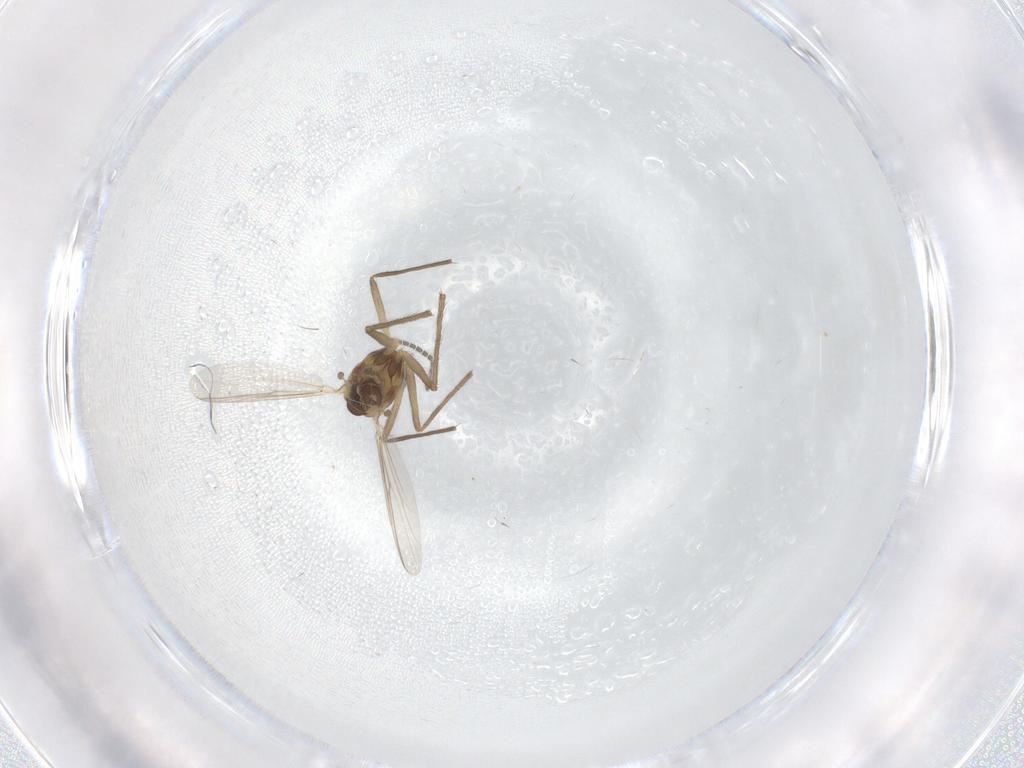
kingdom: Animalia
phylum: Arthropoda
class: Insecta
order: Diptera
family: Chironomidae
